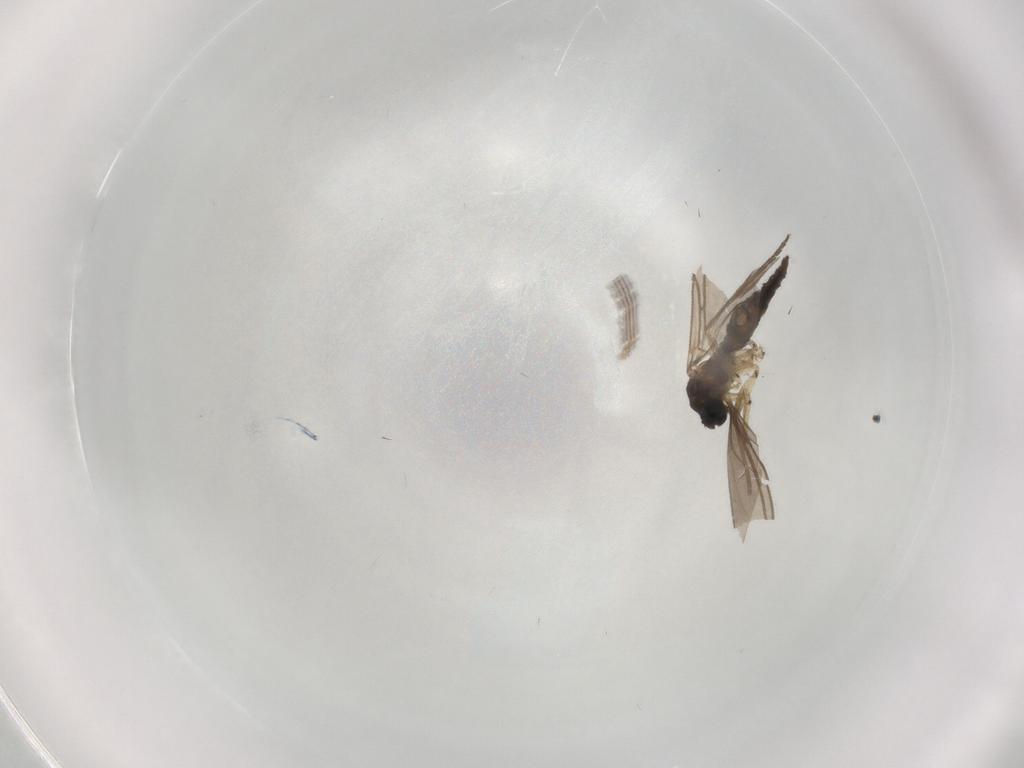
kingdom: Animalia
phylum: Arthropoda
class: Insecta
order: Diptera
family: Sciaridae
